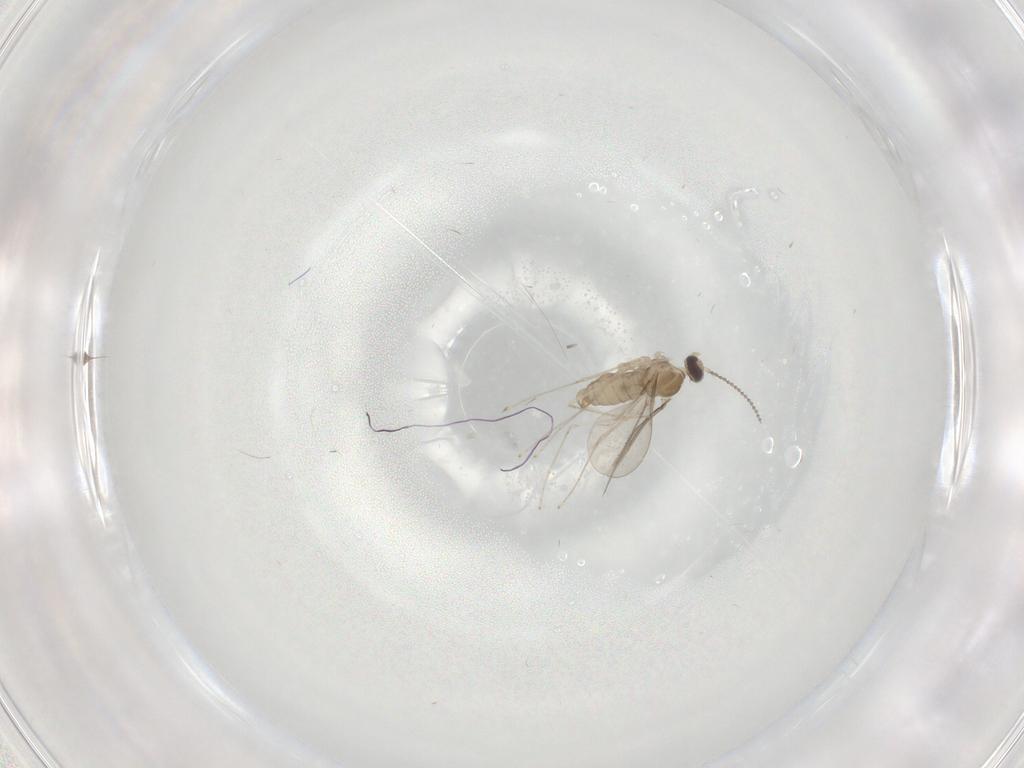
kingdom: Animalia
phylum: Arthropoda
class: Insecta
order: Diptera
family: Cecidomyiidae
